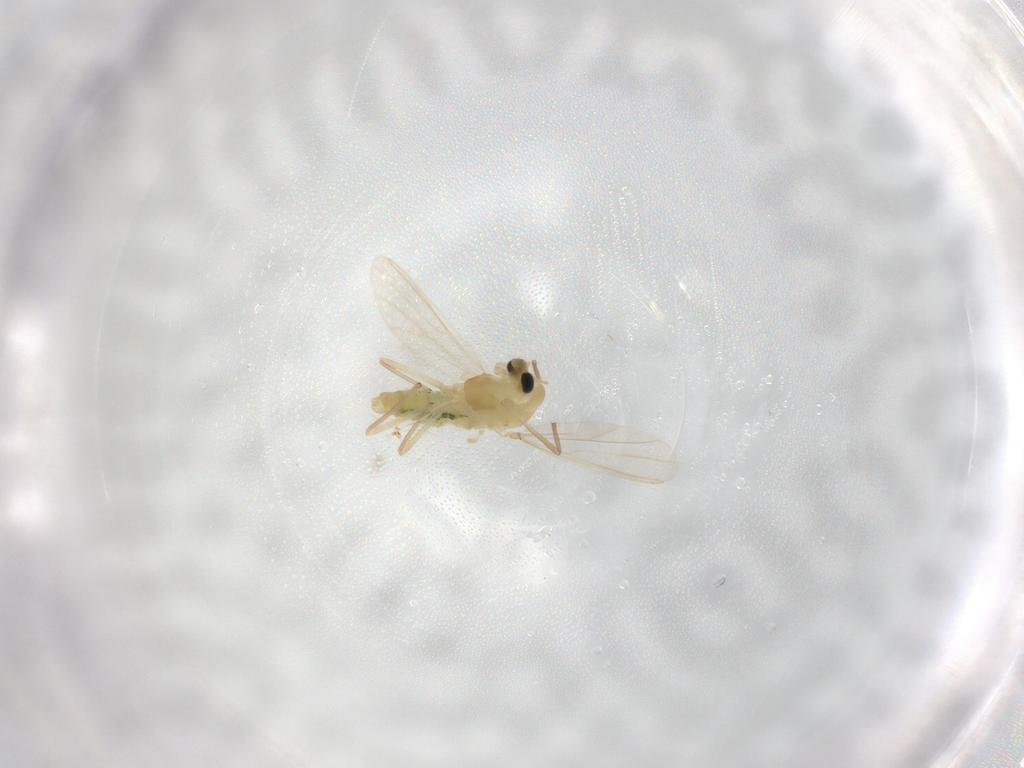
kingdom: Animalia
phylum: Arthropoda
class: Insecta
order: Diptera
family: Chironomidae
